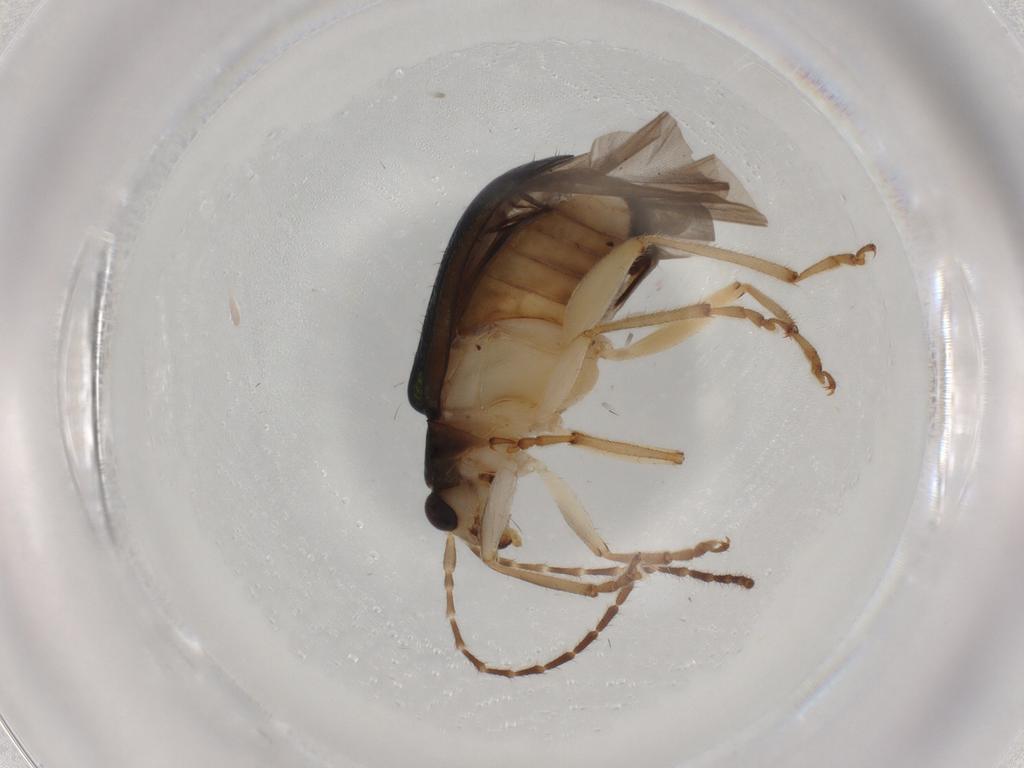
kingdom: Animalia
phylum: Arthropoda
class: Insecta
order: Coleoptera
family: Chrysomelidae
